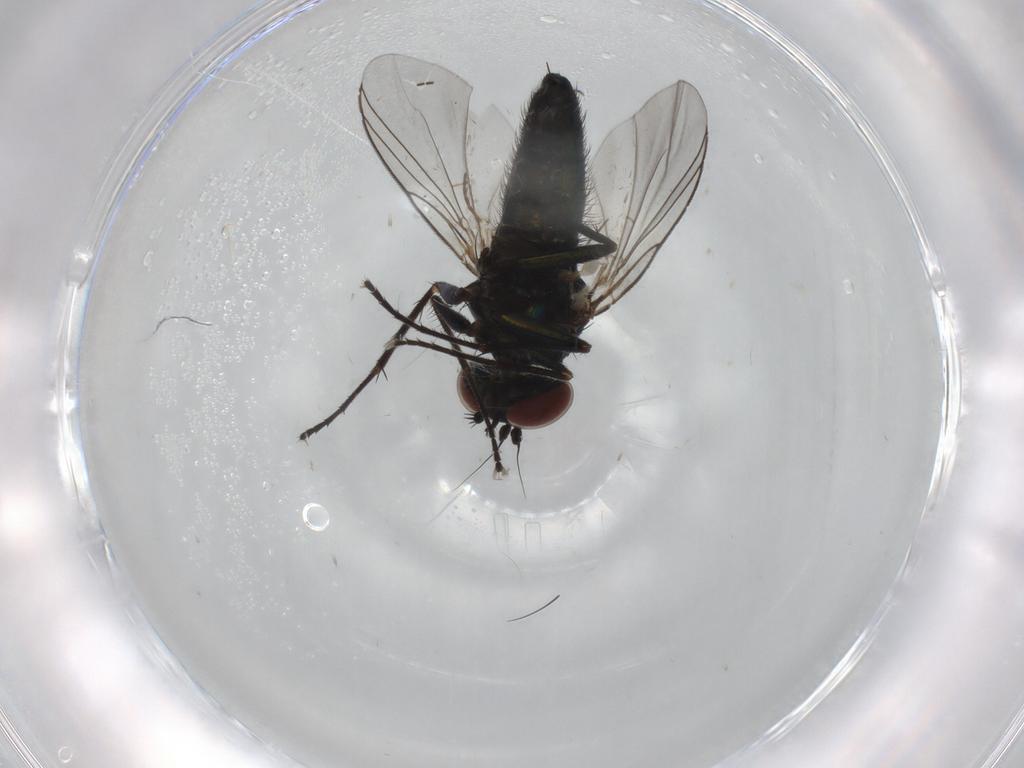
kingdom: Animalia
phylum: Arthropoda
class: Insecta
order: Diptera
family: Dolichopodidae
